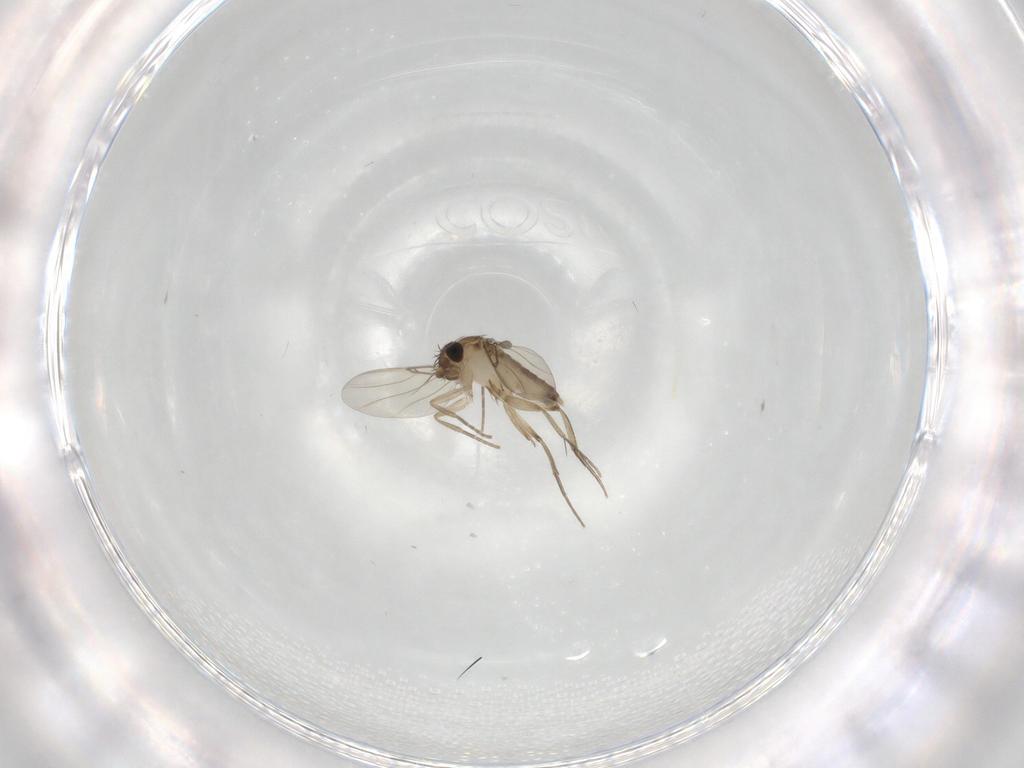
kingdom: Animalia
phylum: Arthropoda
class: Insecta
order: Diptera
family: Phoridae
